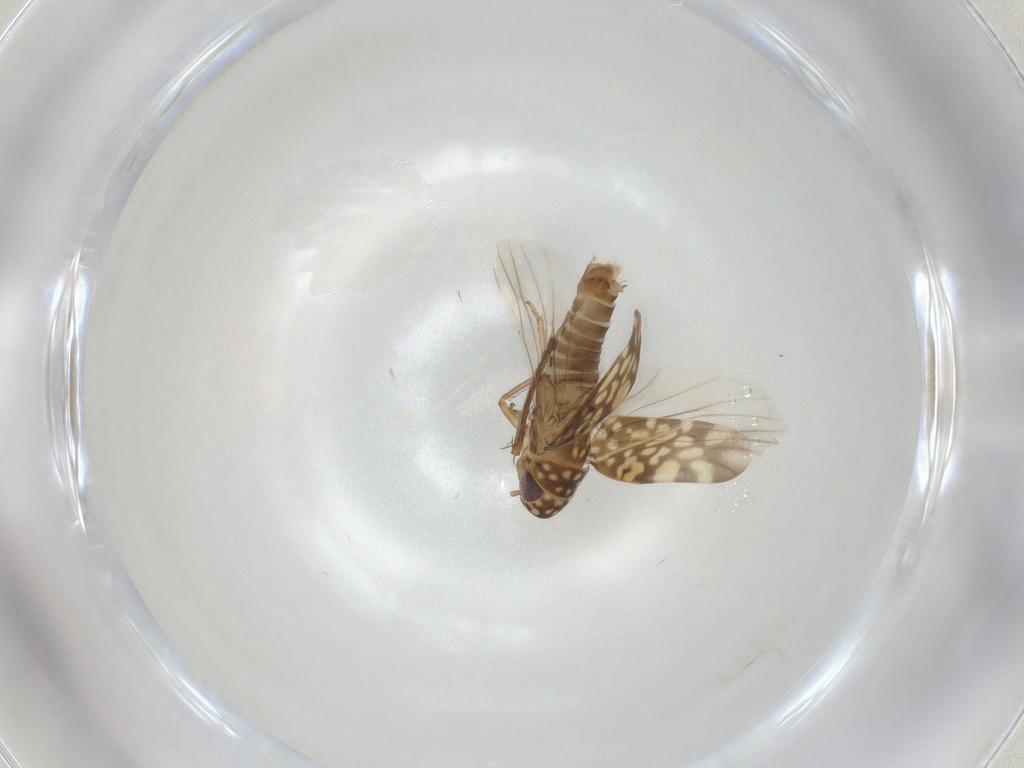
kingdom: Animalia
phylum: Arthropoda
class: Insecta
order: Hemiptera
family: Cicadellidae
